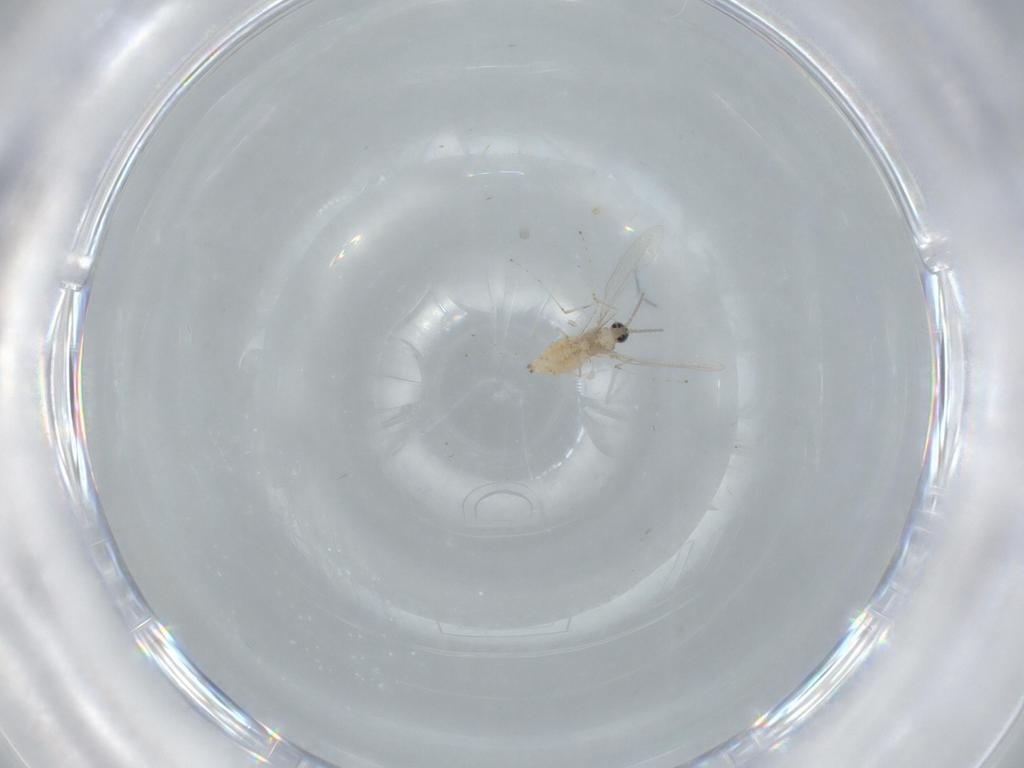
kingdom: Animalia
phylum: Arthropoda
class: Insecta
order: Diptera
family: Cecidomyiidae
